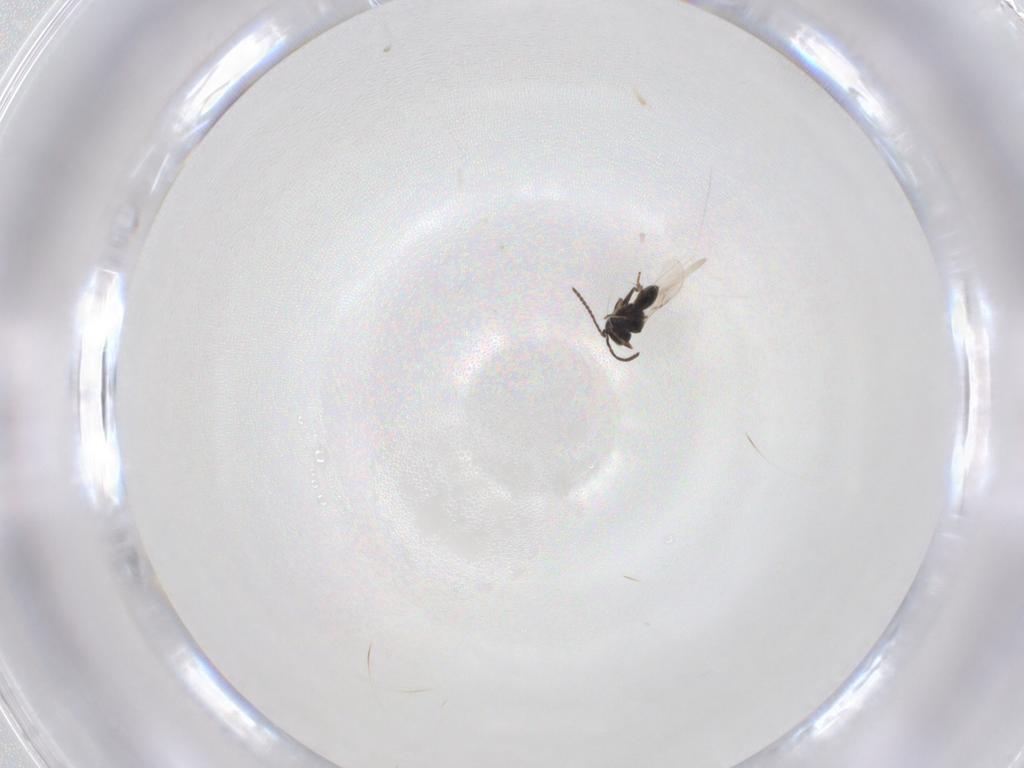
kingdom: Animalia
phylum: Arthropoda
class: Insecta
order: Hymenoptera
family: Scelionidae
